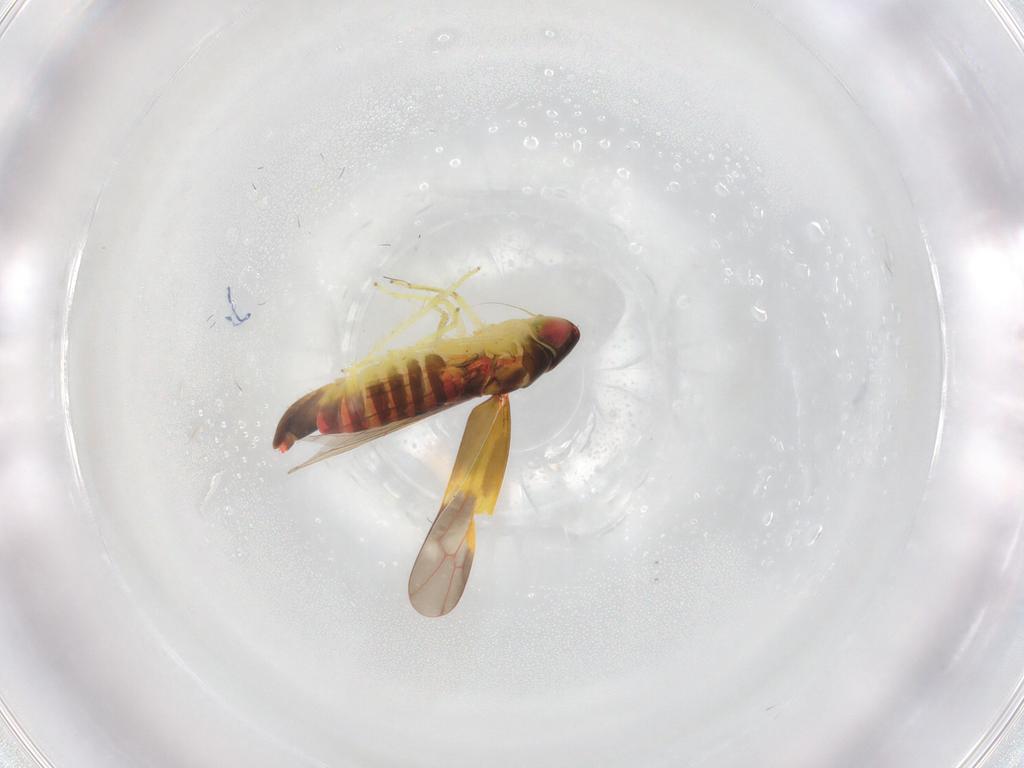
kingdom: Animalia
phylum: Arthropoda
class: Insecta
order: Hemiptera
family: Cicadellidae
